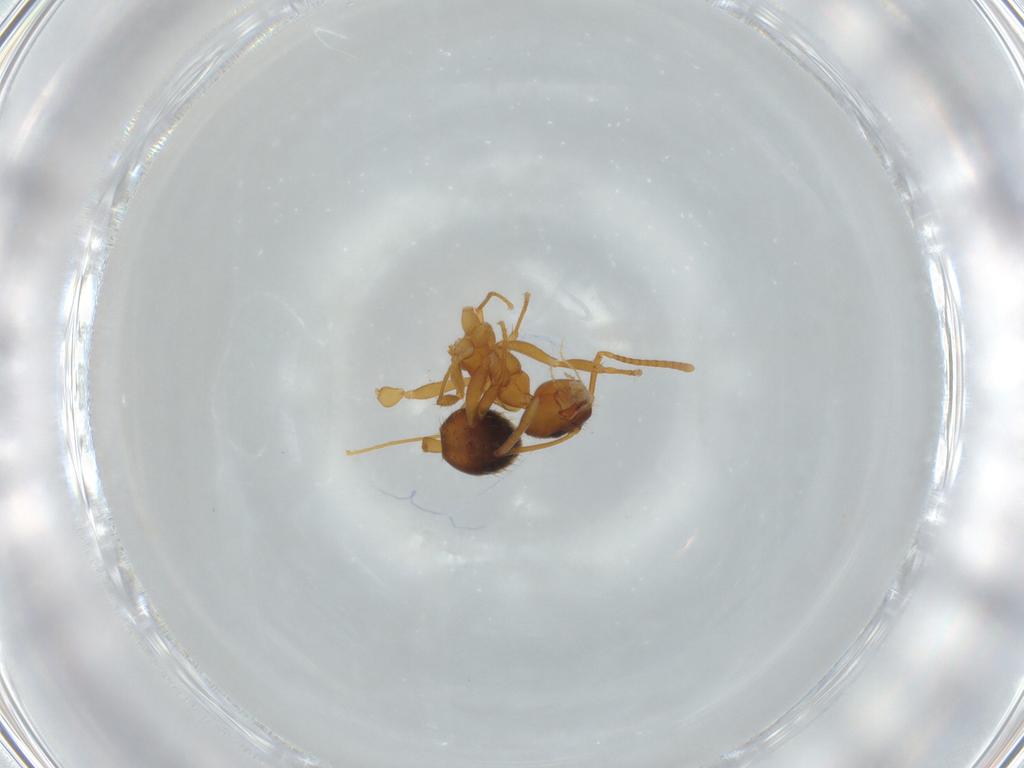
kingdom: Animalia
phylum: Arthropoda
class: Insecta
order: Hymenoptera
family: Formicidae
